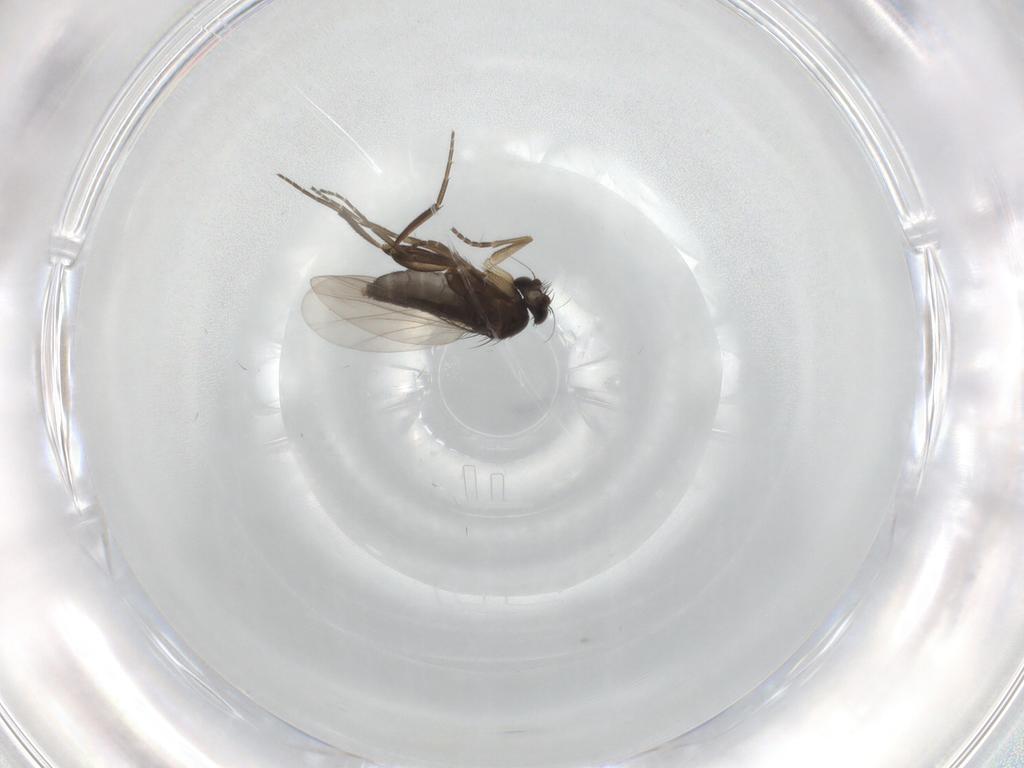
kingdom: Animalia
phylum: Arthropoda
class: Insecta
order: Diptera
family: Phoridae
